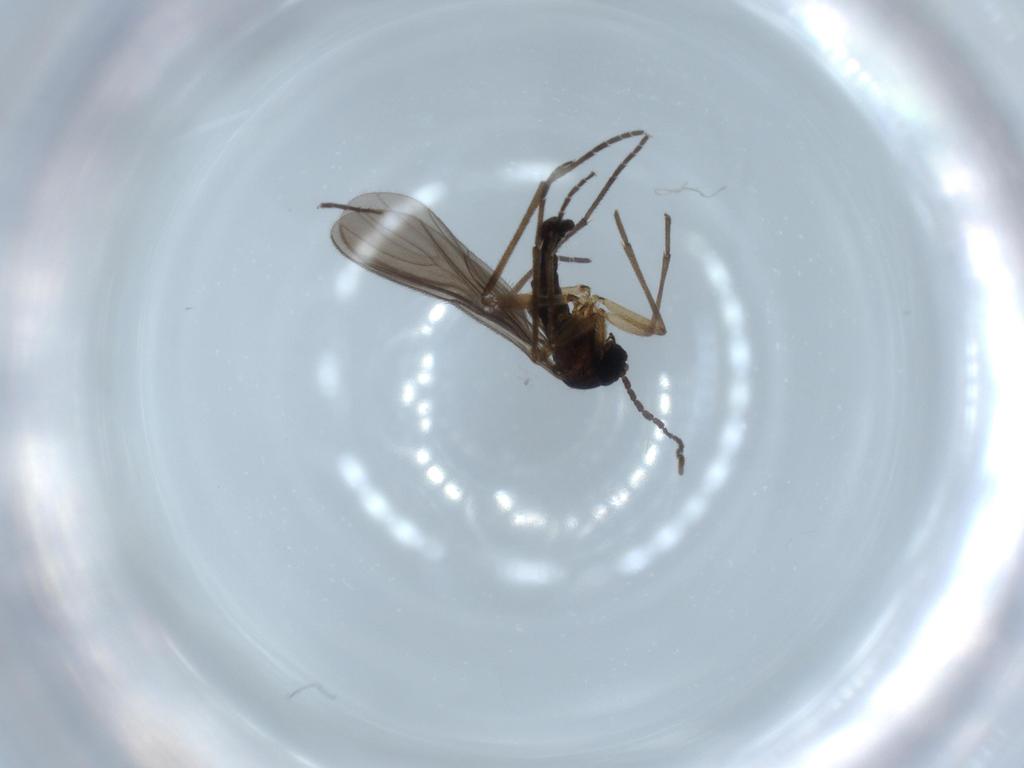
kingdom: Animalia
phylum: Arthropoda
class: Insecta
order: Diptera
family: Sciaridae
